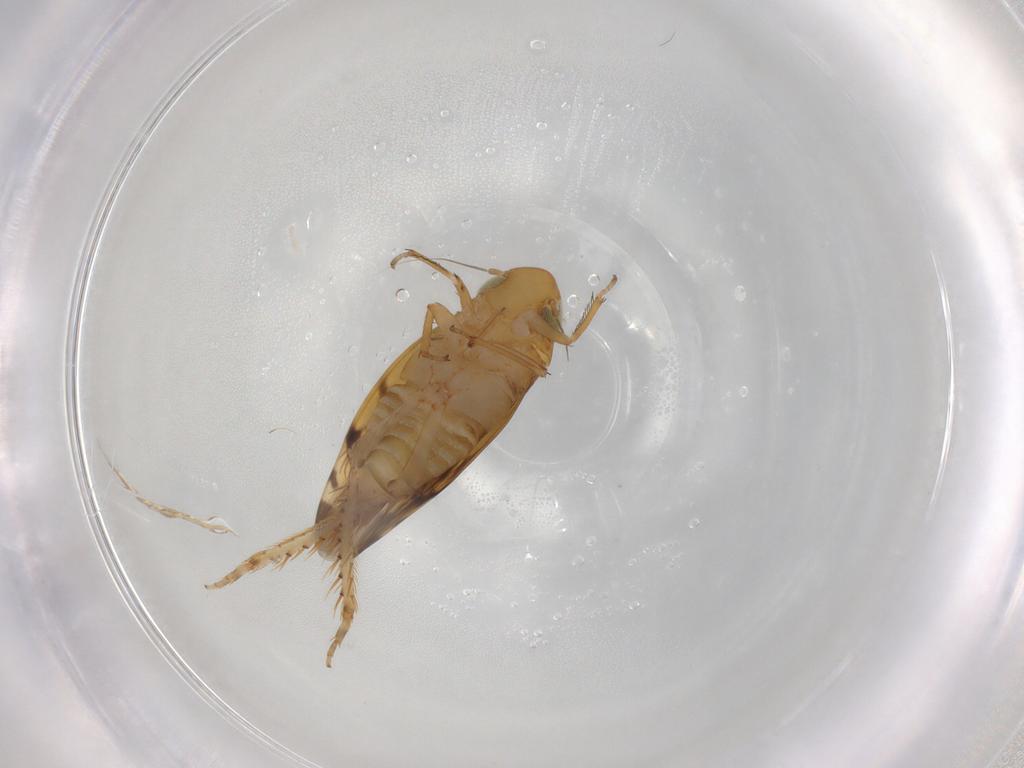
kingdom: Animalia
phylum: Arthropoda
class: Insecta
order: Hemiptera
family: Cicadellidae
